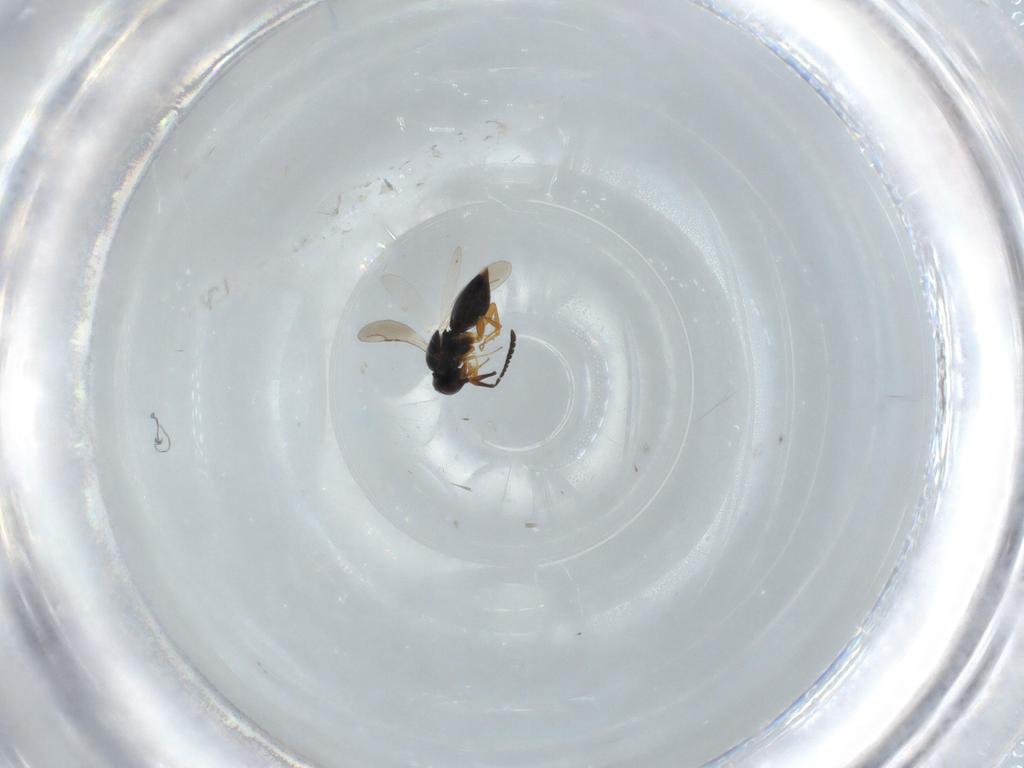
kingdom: Animalia
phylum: Arthropoda
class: Insecta
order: Hymenoptera
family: Ceraphronidae
